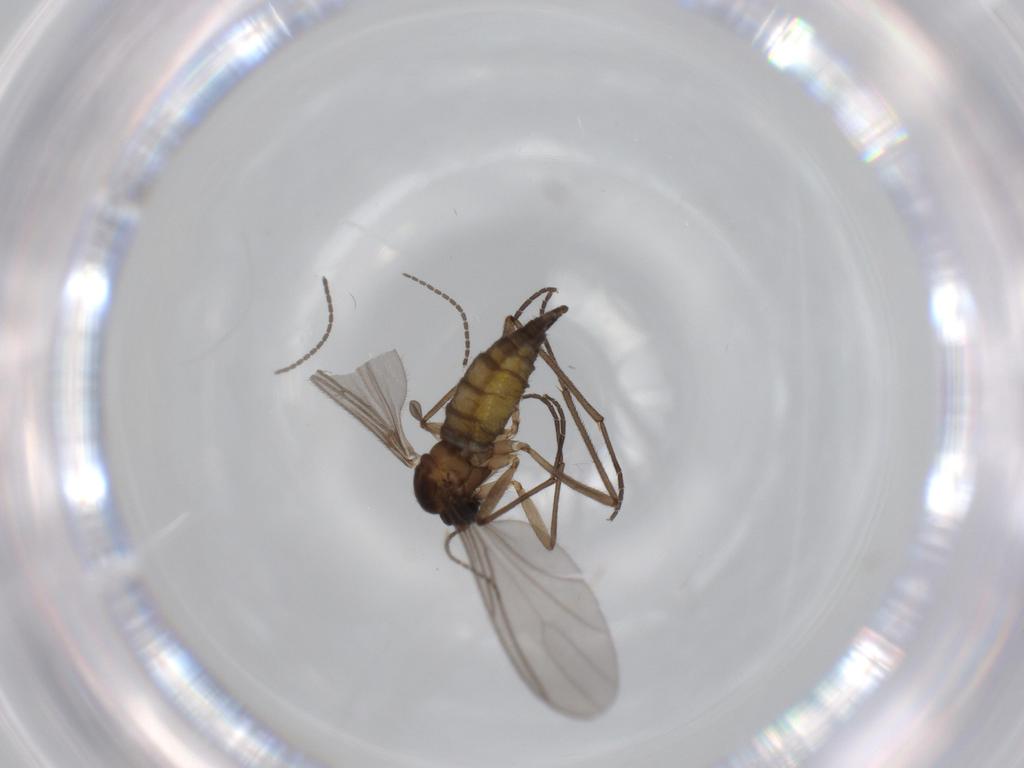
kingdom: Animalia
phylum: Arthropoda
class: Insecta
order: Diptera
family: Sciaridae
